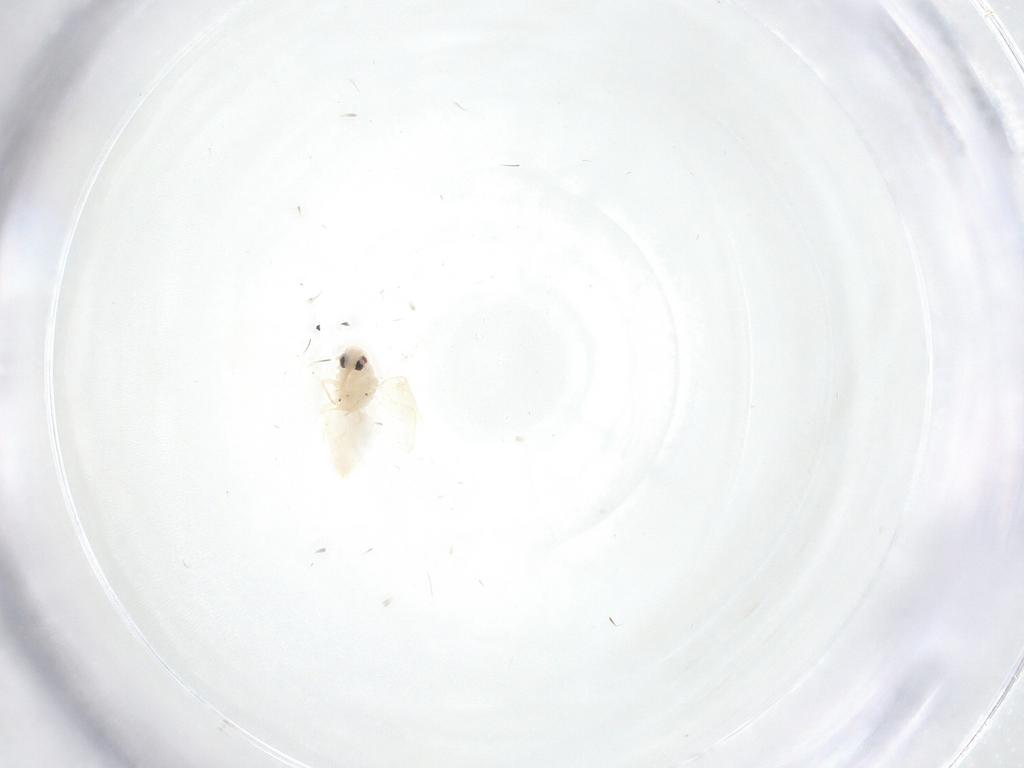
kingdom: Animalia
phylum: Arthropoda
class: Insecta
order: Hemiptera
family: Aleyrodidae
